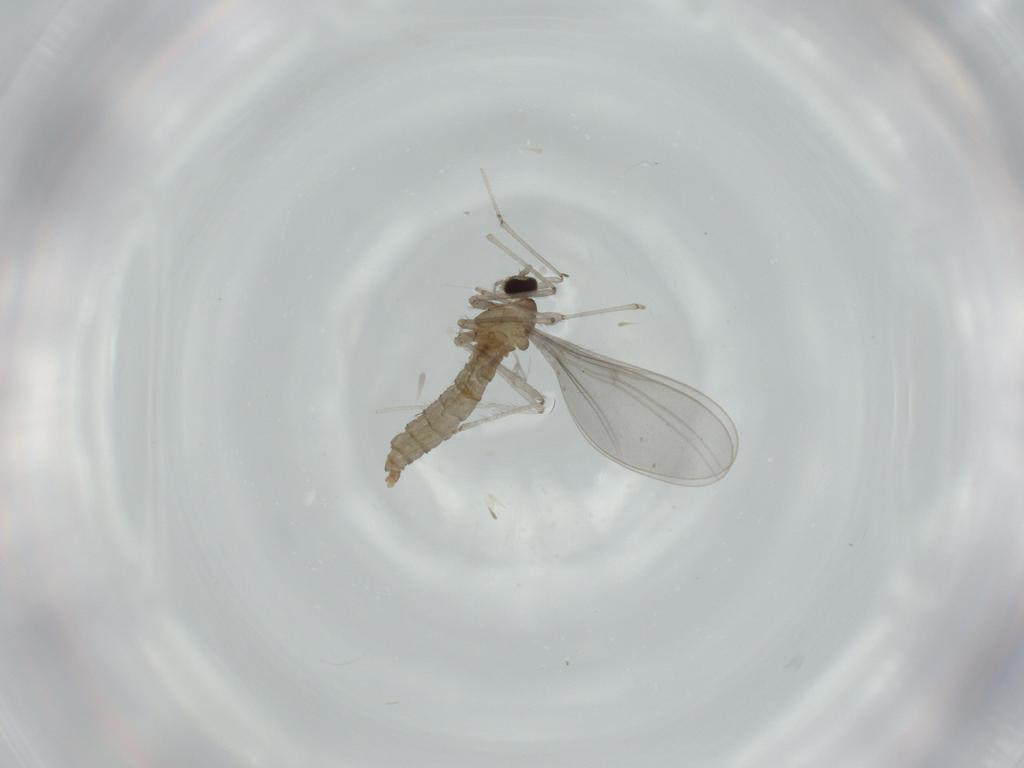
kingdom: Animalia
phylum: Arthropoda
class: Insecta
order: Diptera
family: Cecidomyiidae
